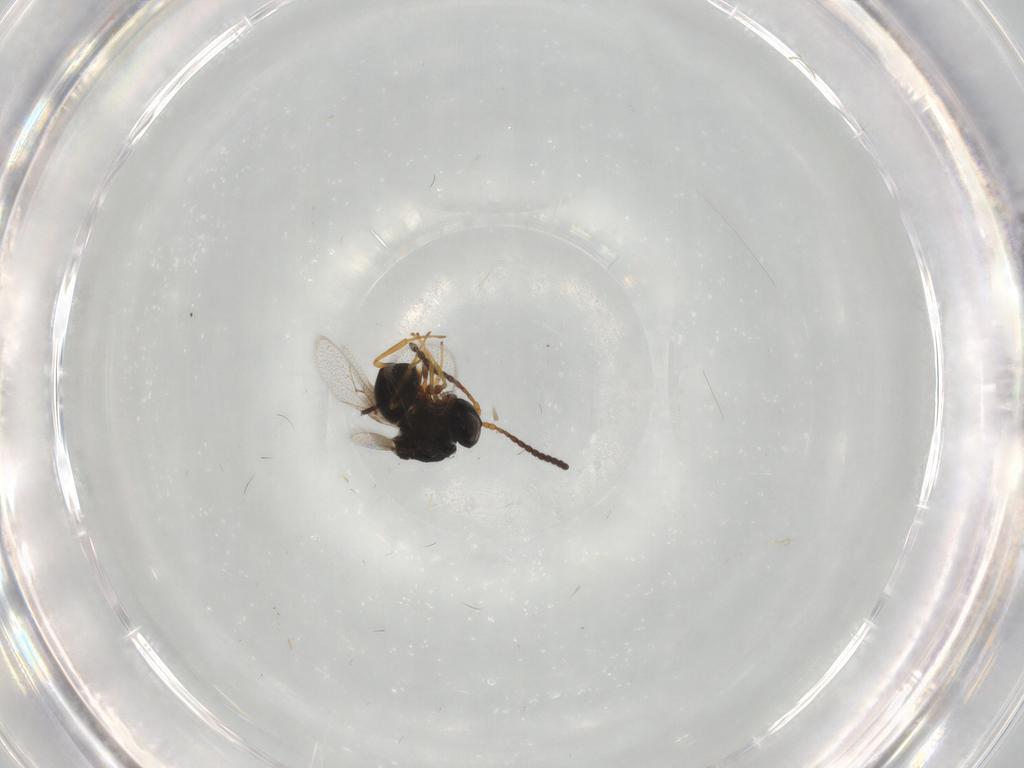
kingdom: Animalia
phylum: Arthropoda
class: Insecta
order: Hymenoptera
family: Figitidae
